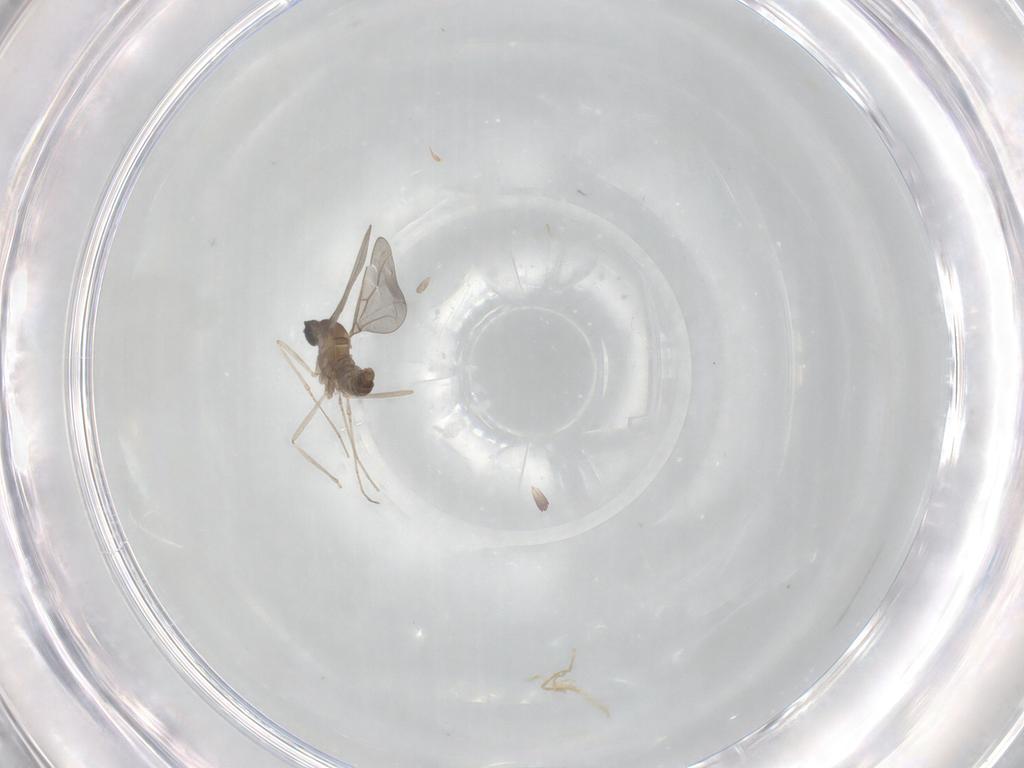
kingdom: Animalia
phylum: Arthropoda
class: Insecta
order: Diptera
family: Cecidomyiidae
